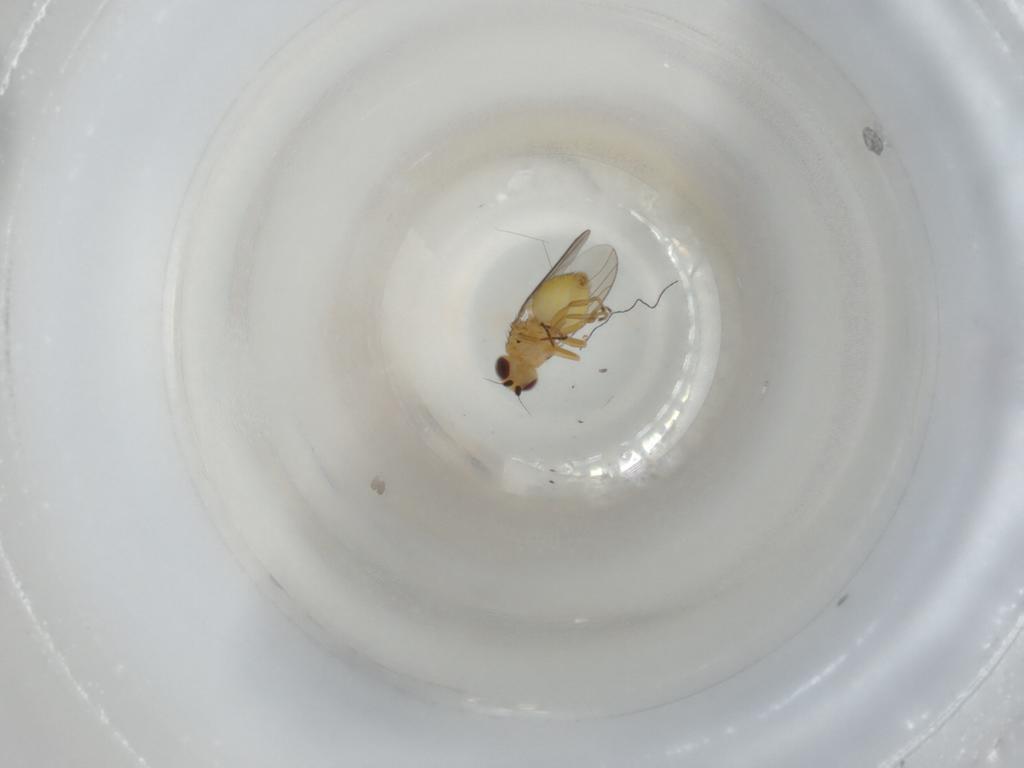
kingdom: Animalia
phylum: Arthropoda
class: Insecta
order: Diptera
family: Chloropidae
